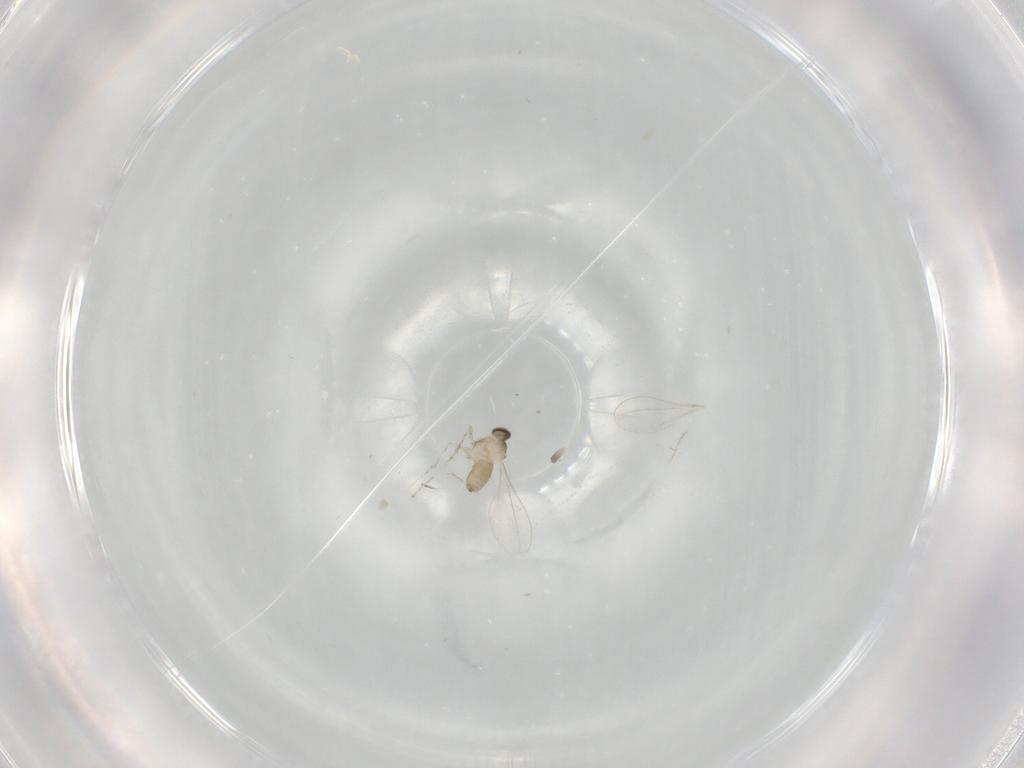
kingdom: Animalia
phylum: Arthropoda
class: Insecta
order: Diptera
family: Cecidomyiidae
